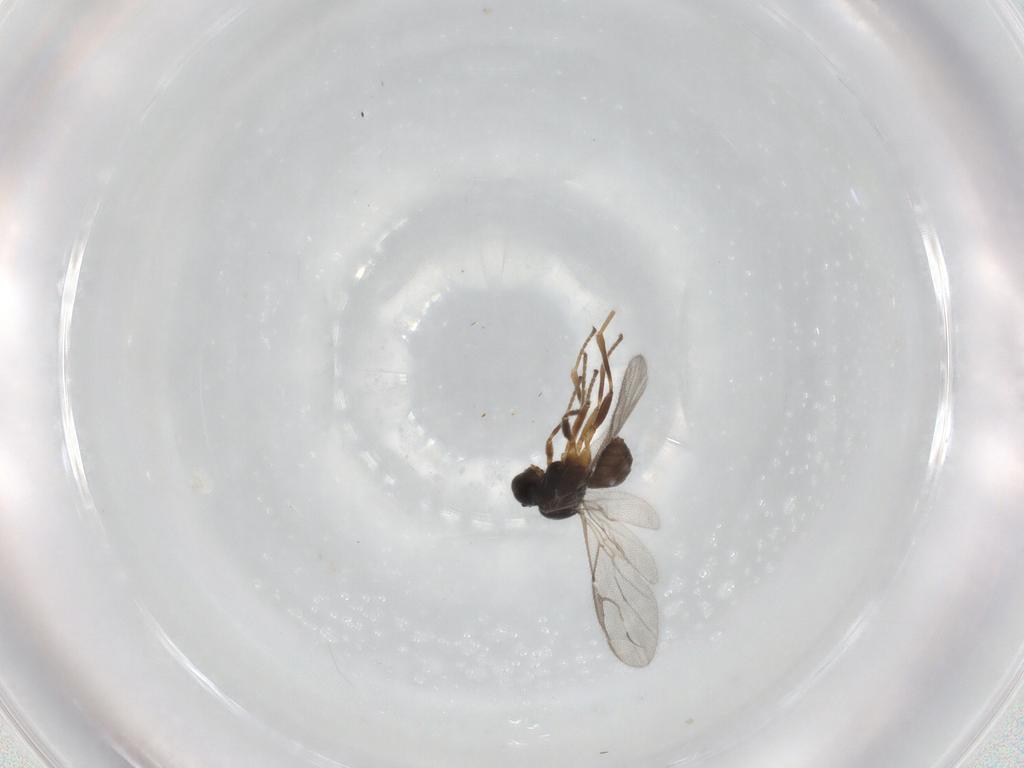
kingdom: Animalia
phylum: Arthropoda
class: Insecta
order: Hymenoptera
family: Braconidae
